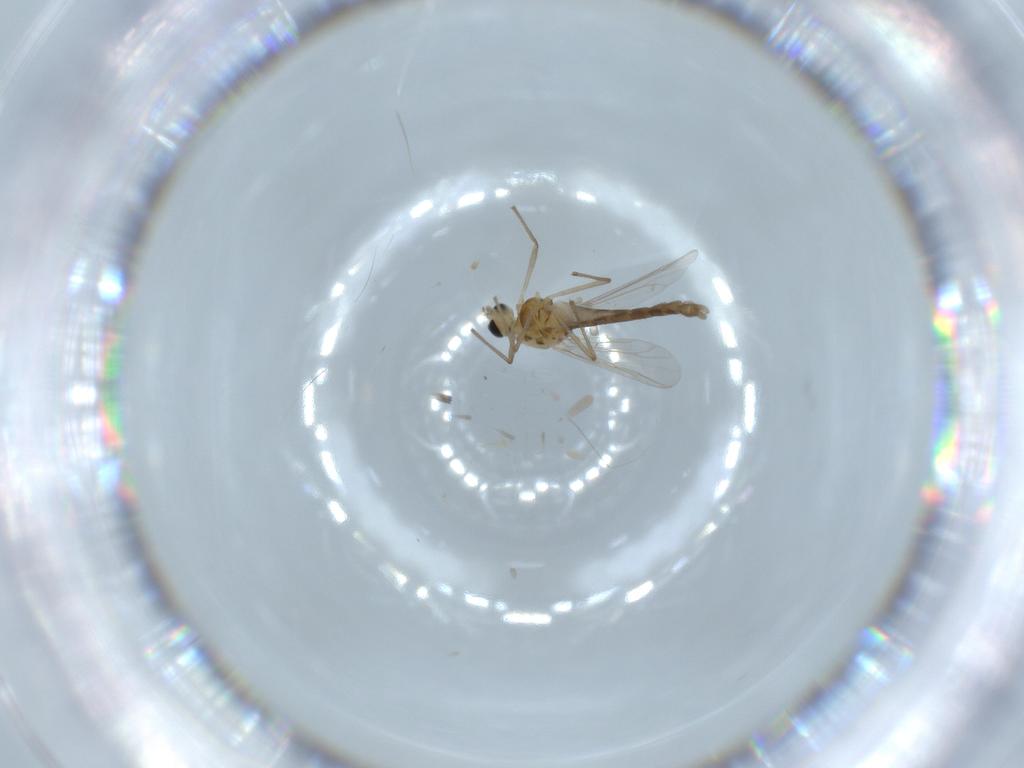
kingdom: Animalia
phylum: Arthropoda
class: Insecta
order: Diptera
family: Chironomidae
